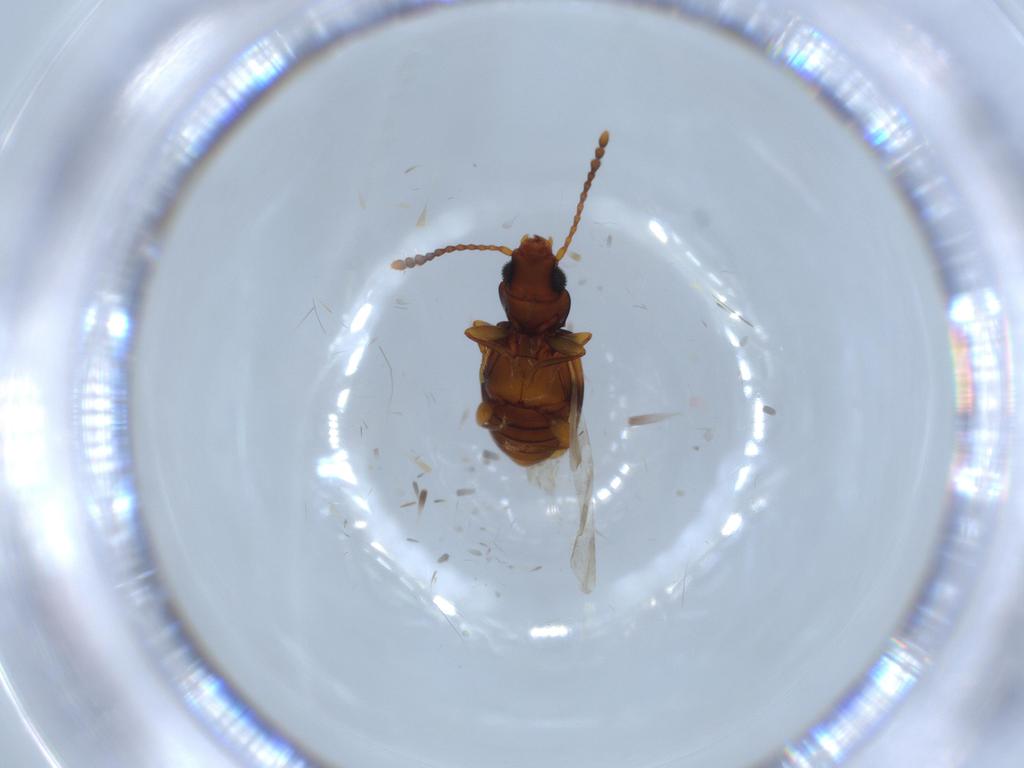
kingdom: Animalia
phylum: Arthropoda
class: Insecta
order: Coleoptera
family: Laemophloeidae
